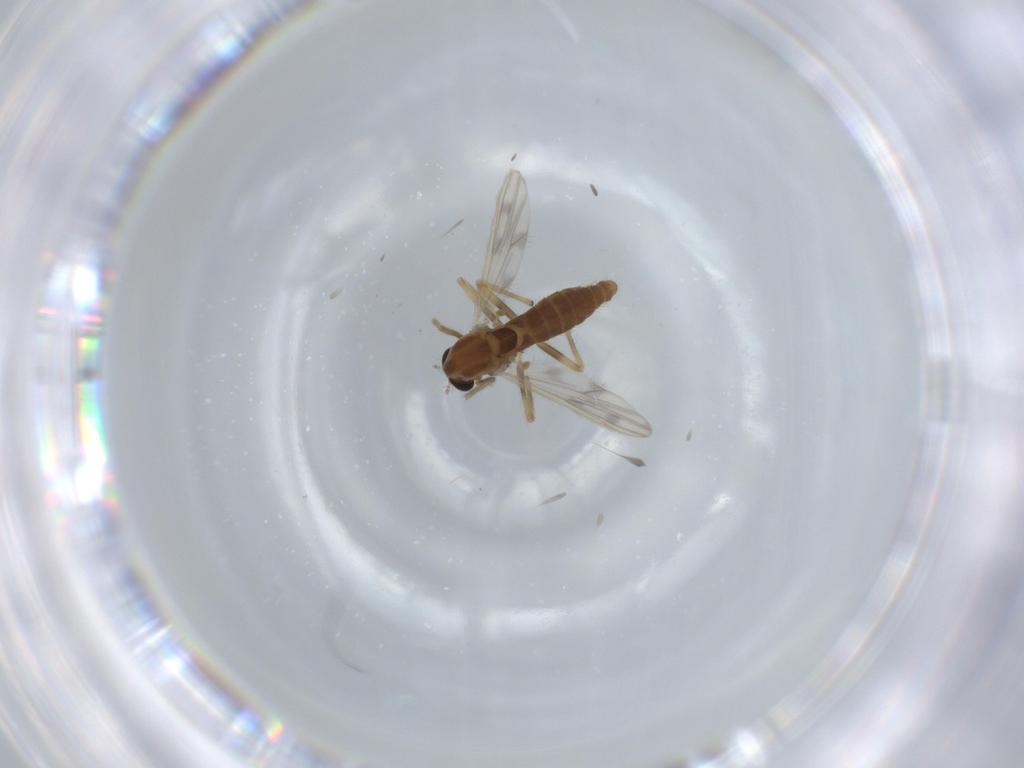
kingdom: Animalia
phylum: Arthropoda
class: Insecta
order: Diptera
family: Chironomidae
